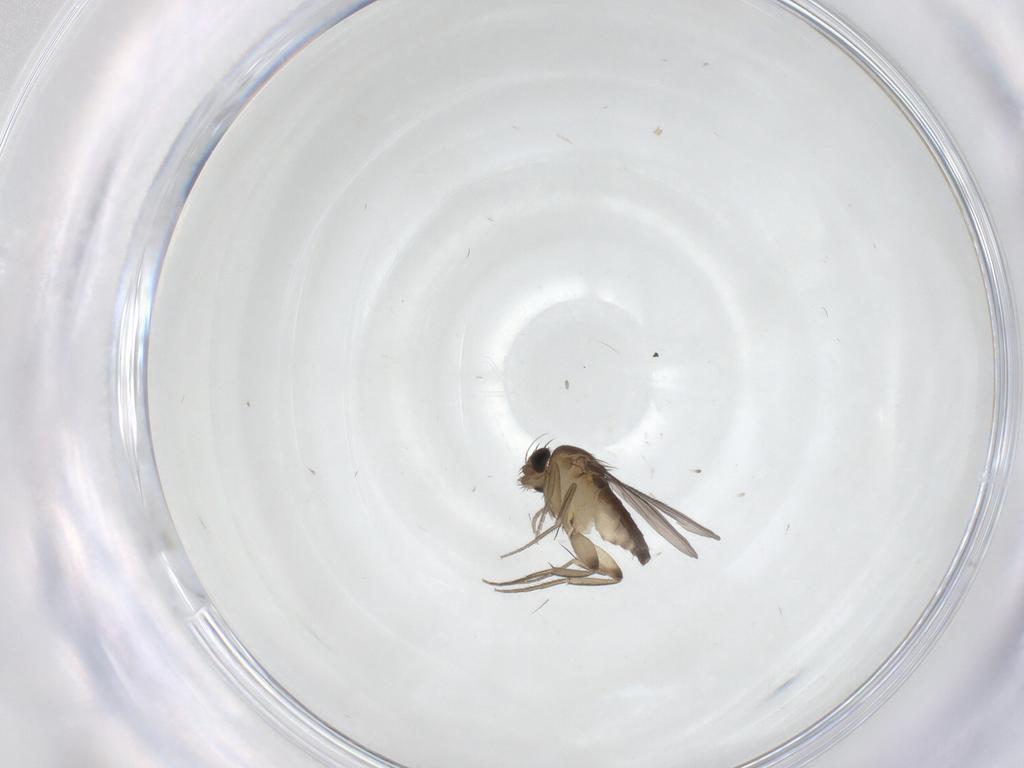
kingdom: Animalia
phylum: Arthropoda
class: Insecta
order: Diptera
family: Phoridae
